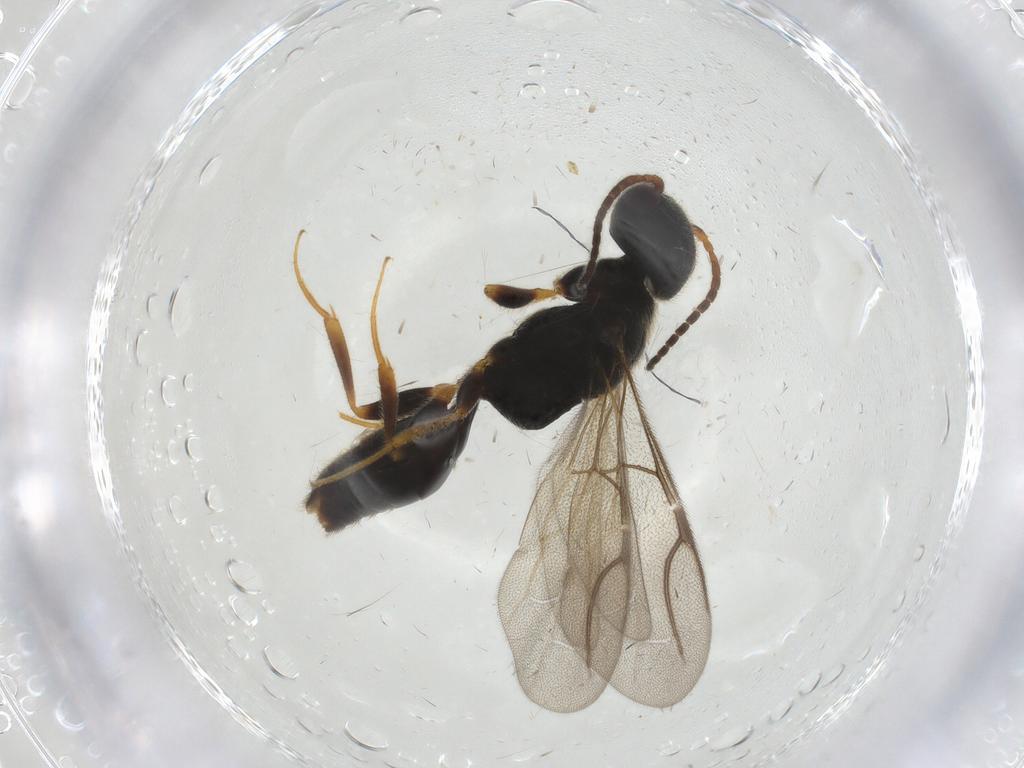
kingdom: Animalia
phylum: Arthropoda
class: Insecta
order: Hymenoptera
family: Bethylidae
